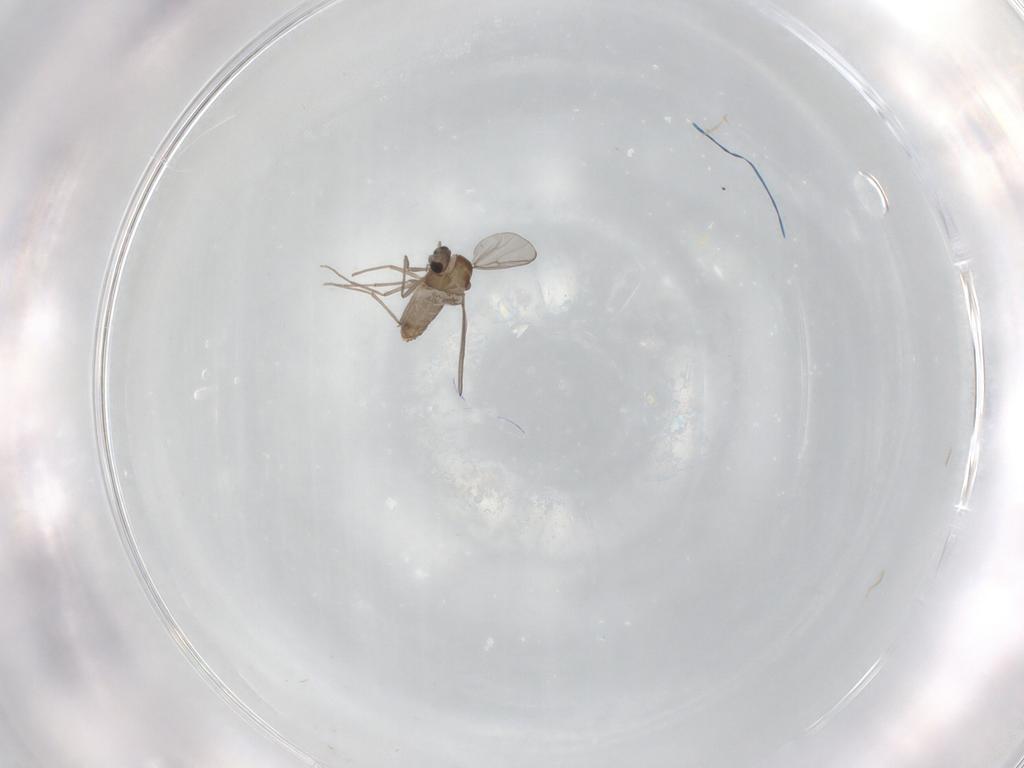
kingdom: Animalia
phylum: Arthropoda
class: Insecta
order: Diptera
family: Chironomidae
